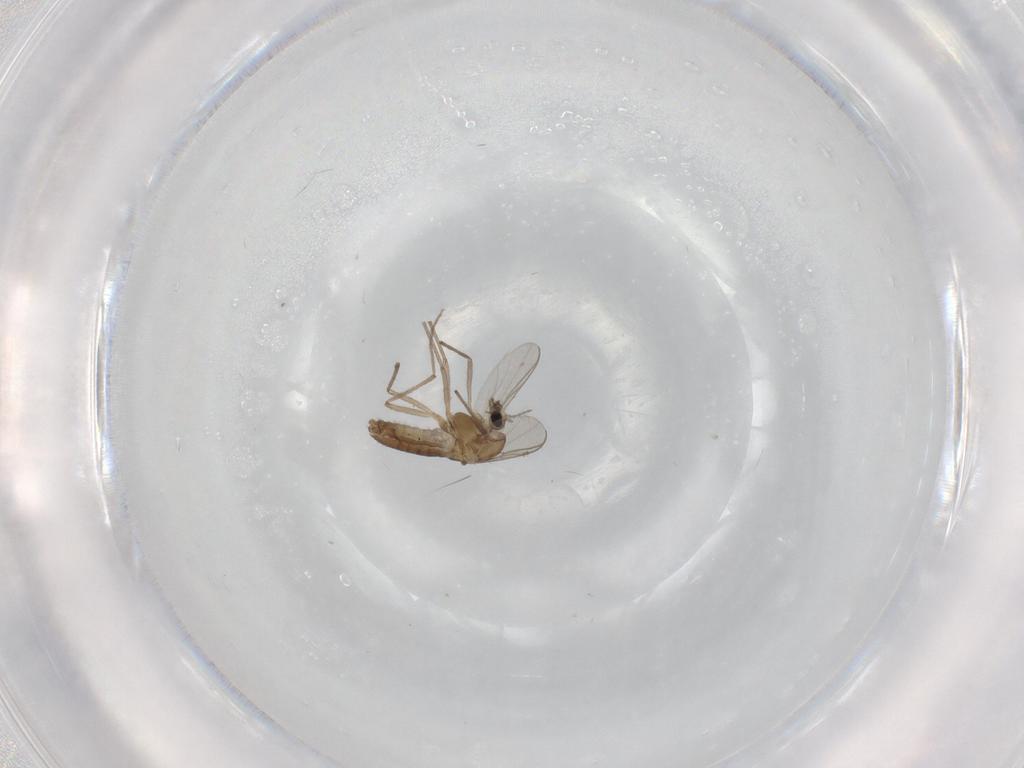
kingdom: Animalia
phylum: Arthropoda
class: Insecta
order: Diptera
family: Chironomidae
